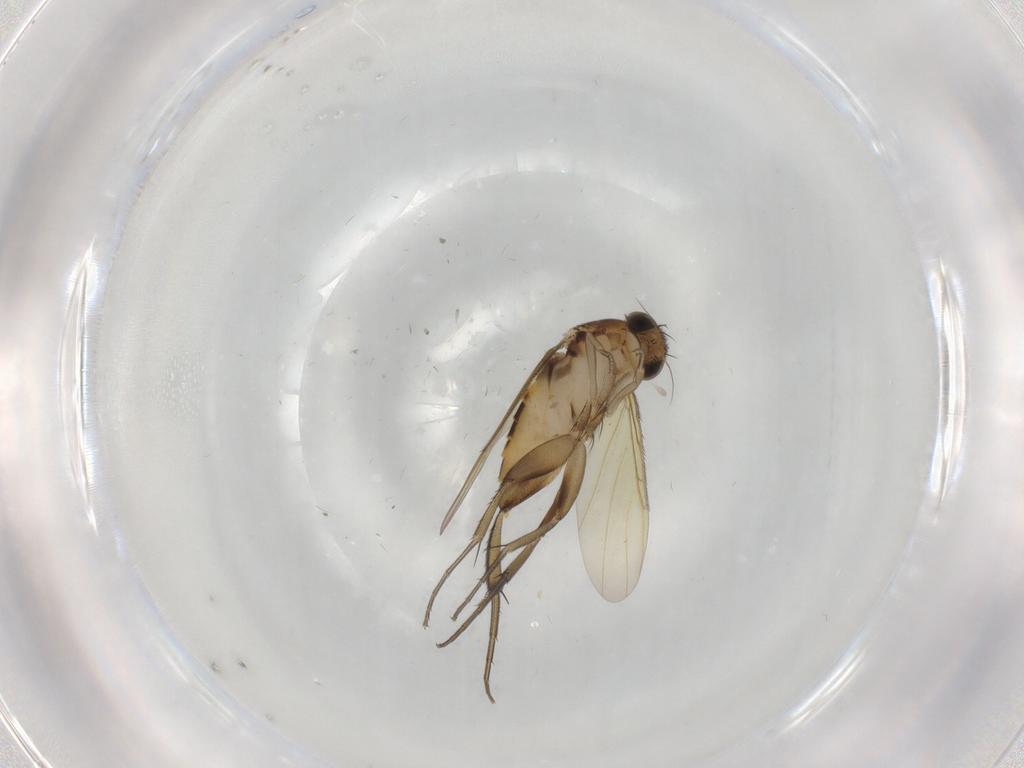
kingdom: Animalia
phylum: Arthropoda
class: Insecta
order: Diptera
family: Phoridae
